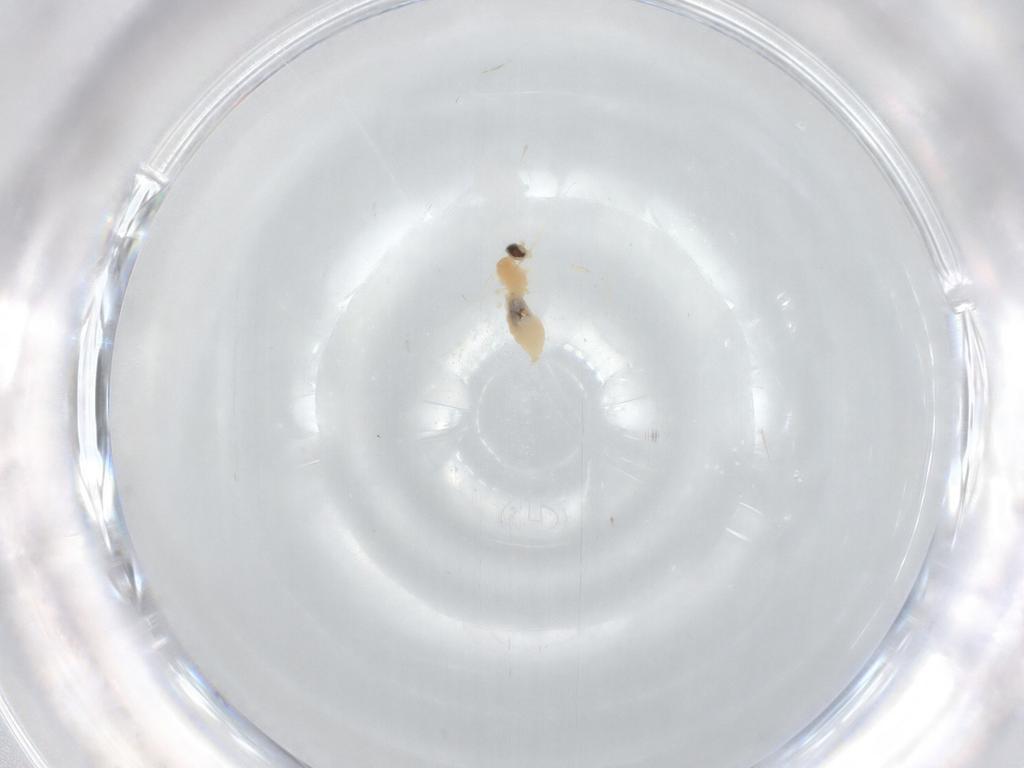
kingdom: Animalia
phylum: Arthropoda
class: Insecta
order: Diptera
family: Cecidomyiidae
